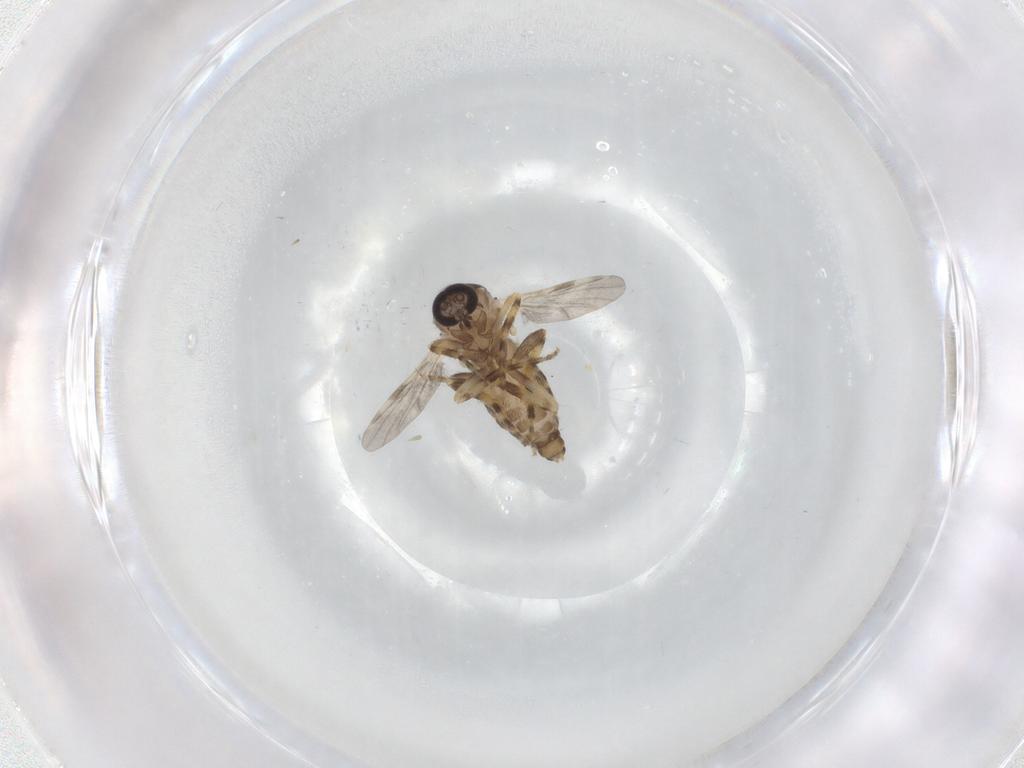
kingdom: Animalia
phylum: Arthropoda
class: Insecta
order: Diptera
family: Ceratopogonidae
